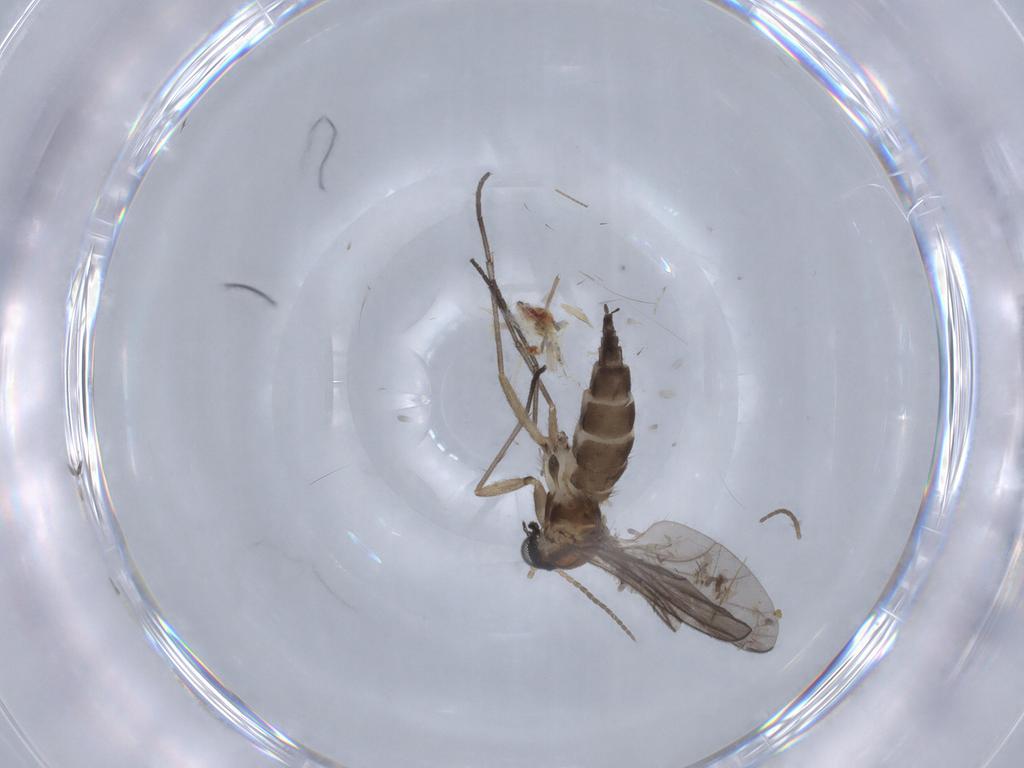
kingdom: Animalia
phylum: Arthropoda
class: Insecta
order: Diptera
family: Sciaridae
